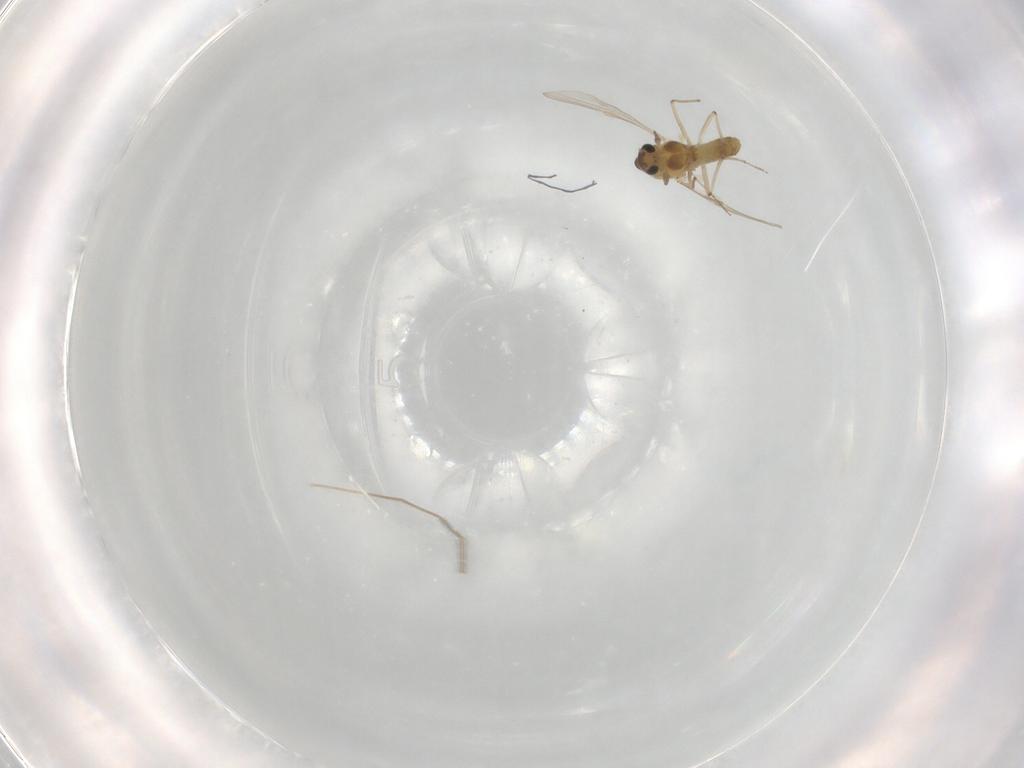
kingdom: Animalia
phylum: Arthropoda
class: Insecta
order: Diptera
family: Chironomidae
